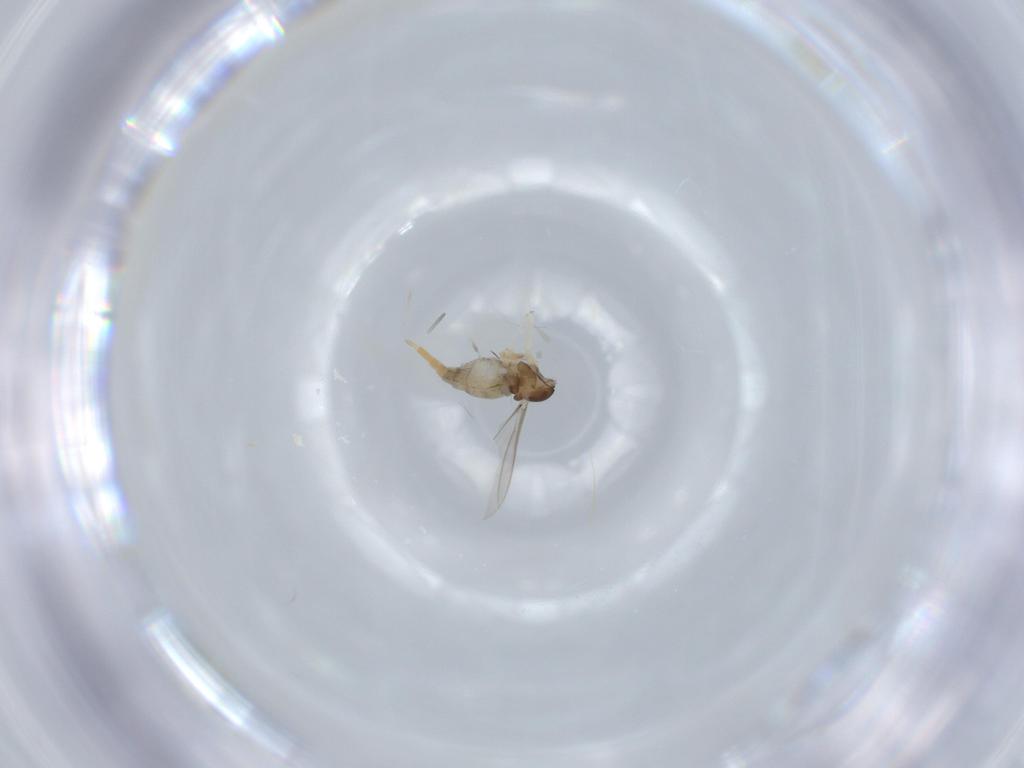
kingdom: Animalia
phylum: Arthropoda
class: Insecta
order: Diptera
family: Cecidomyiidae
